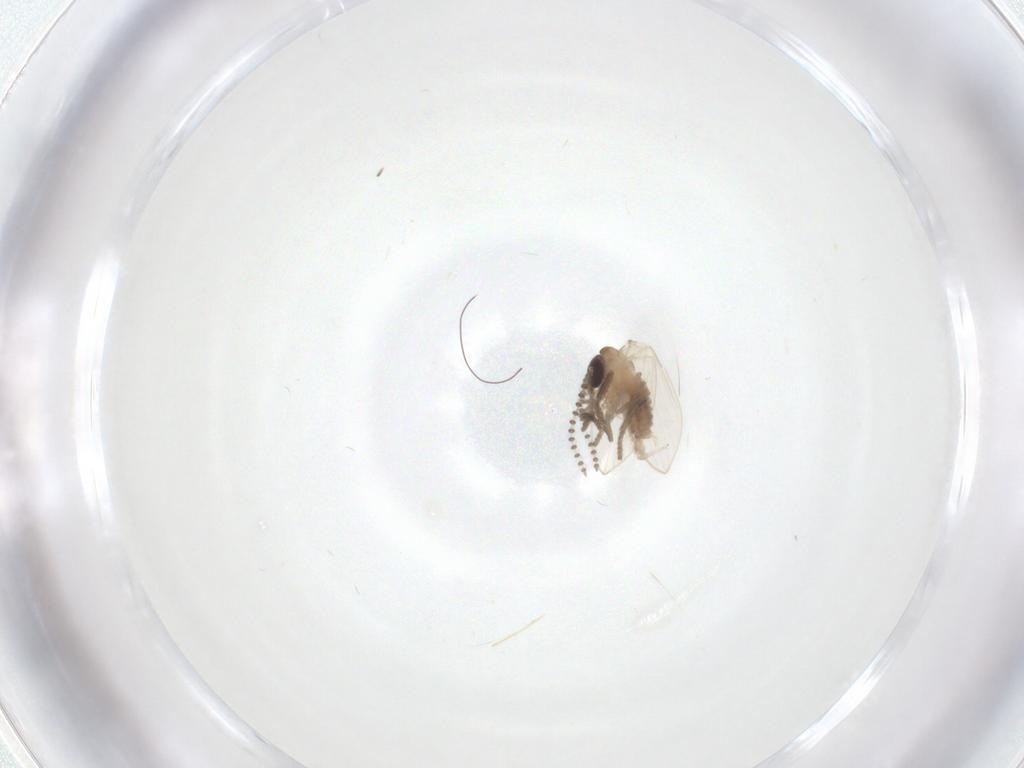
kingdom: Animalia
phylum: Arthropoda
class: Insecta
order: Diptera
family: Psychodidae
